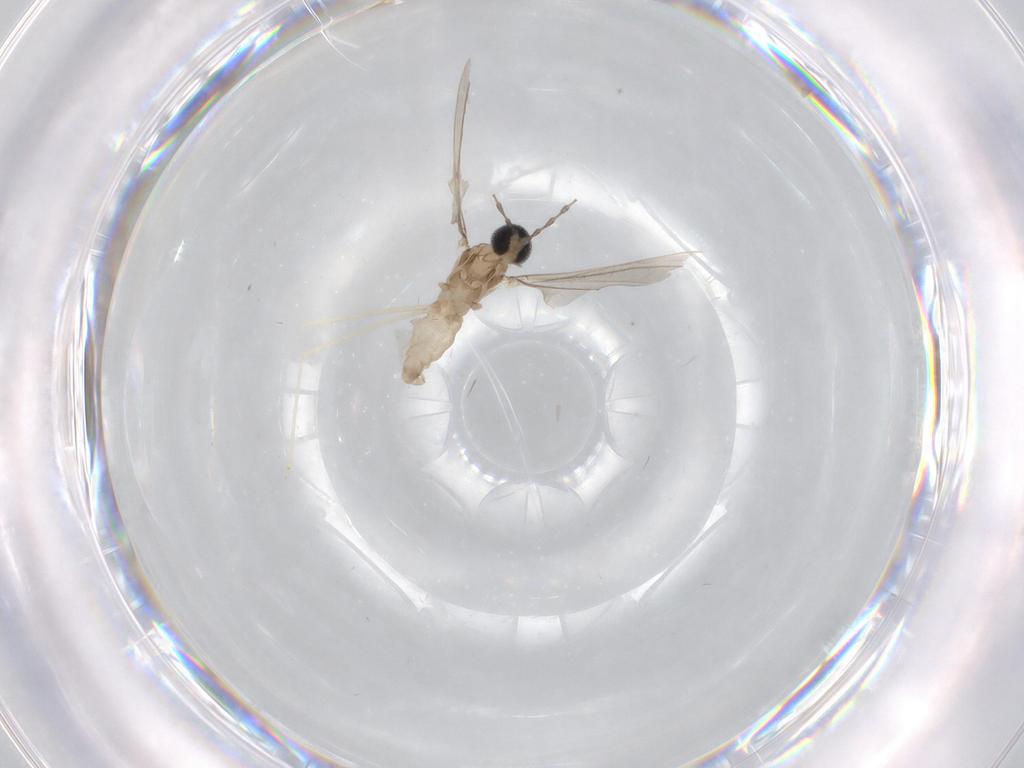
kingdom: Animalia
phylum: Arthropoda
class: Insecta
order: Diptera
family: Cecidomyiidae
